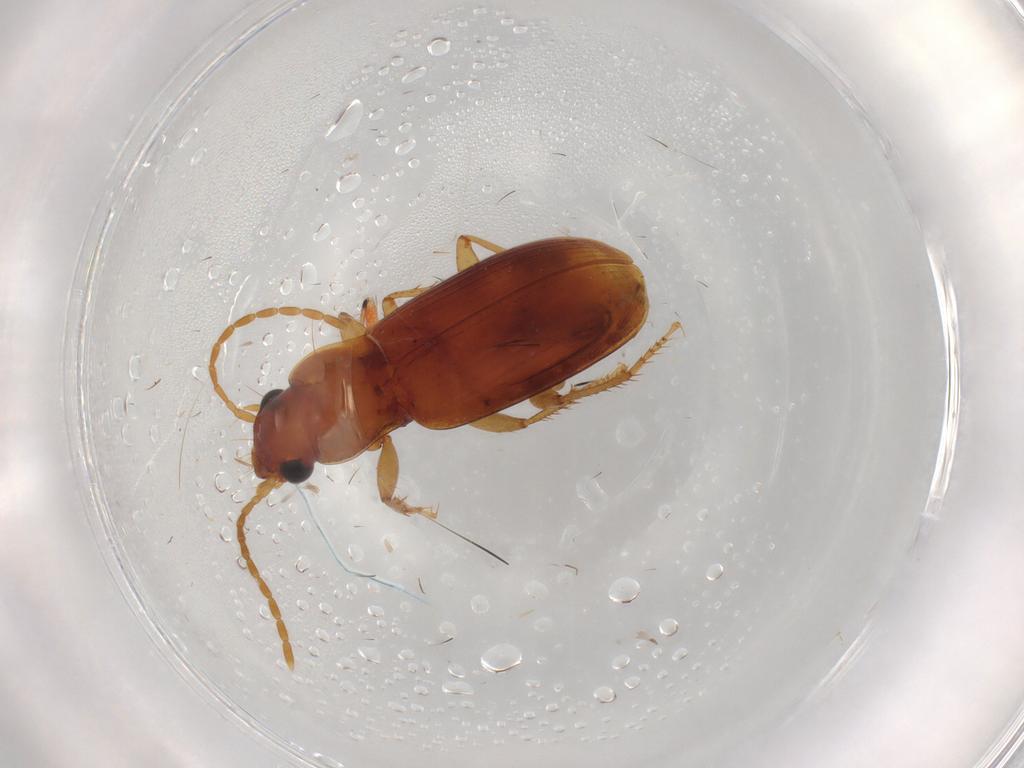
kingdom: Animalia
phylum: Arthropoda
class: Insecta
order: Coleoptera
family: Carabidae
